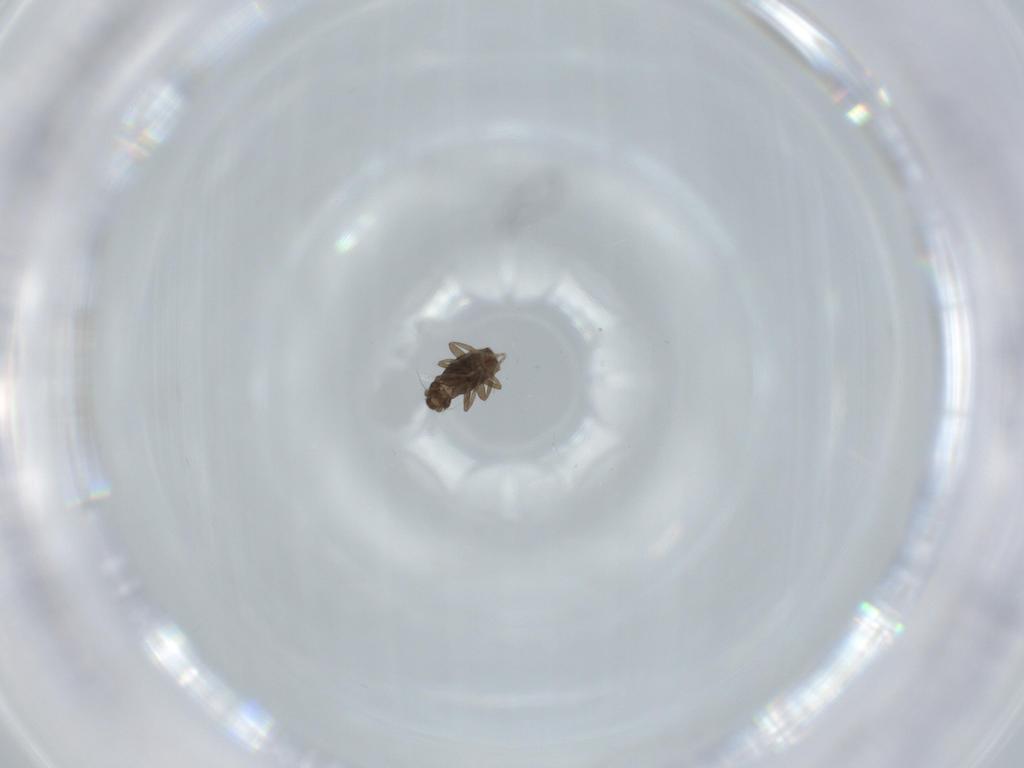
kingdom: Animalia
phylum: Arthropoda
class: Insecta
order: Diptera
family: Phoridae
